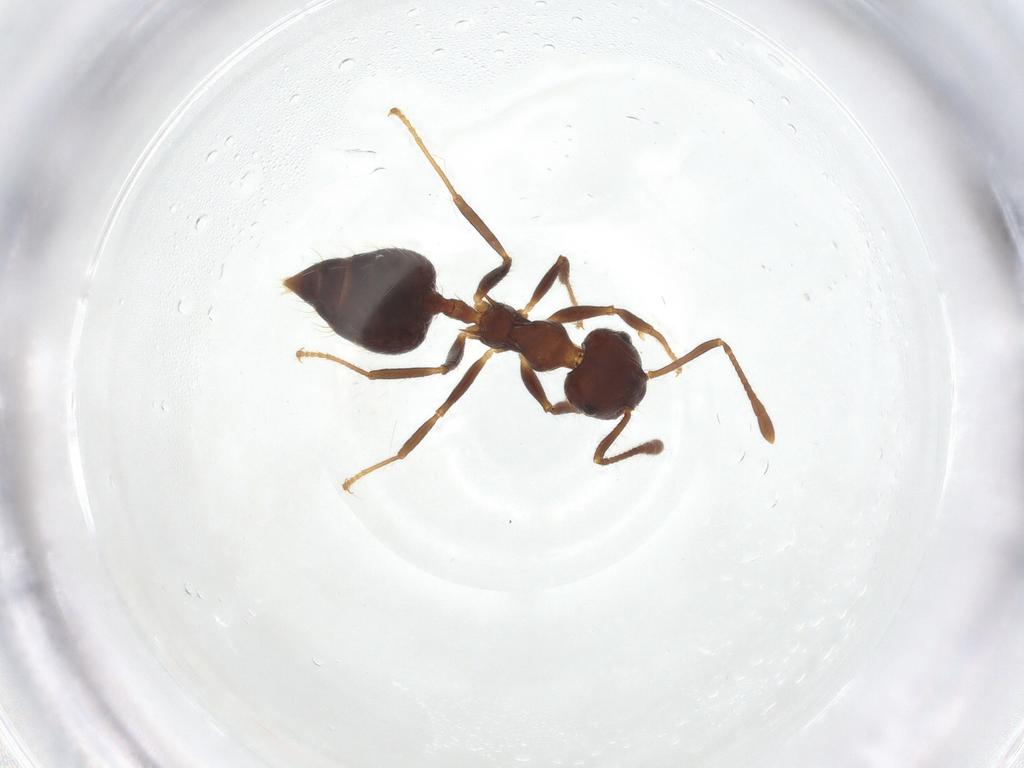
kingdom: Animalia
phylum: Arthropoda
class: Insecta
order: Hymenoptera
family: Formicidae
